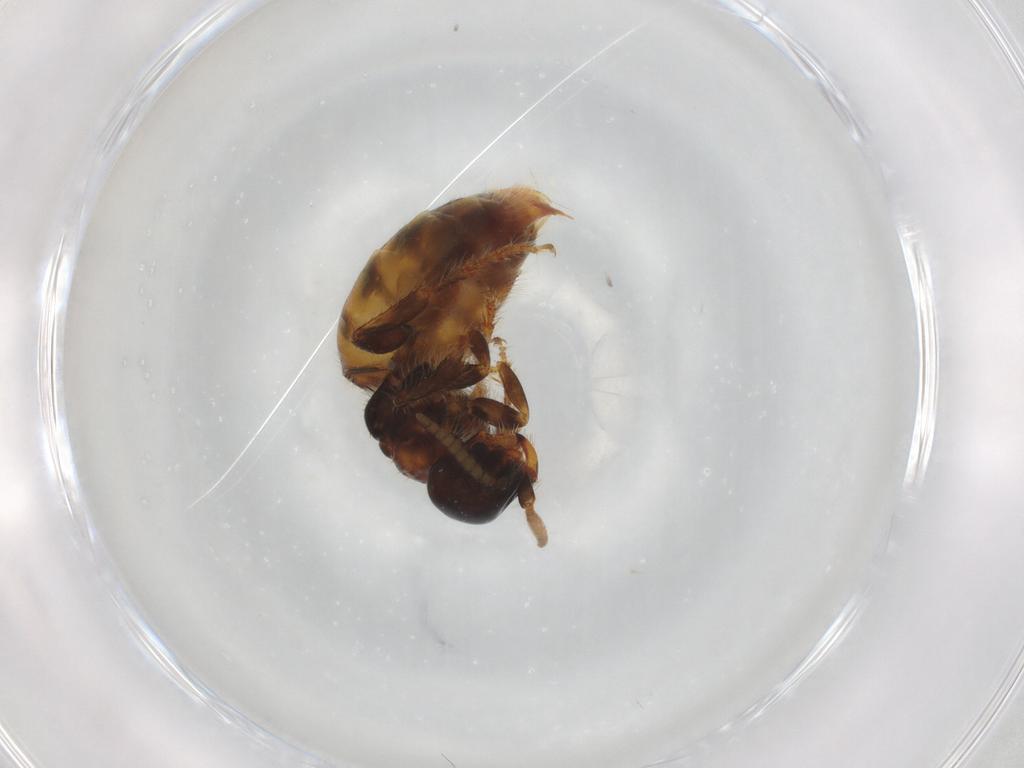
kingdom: Animalia
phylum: Arthropoda
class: Insecta
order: Hymenoptera
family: Thynnidae
